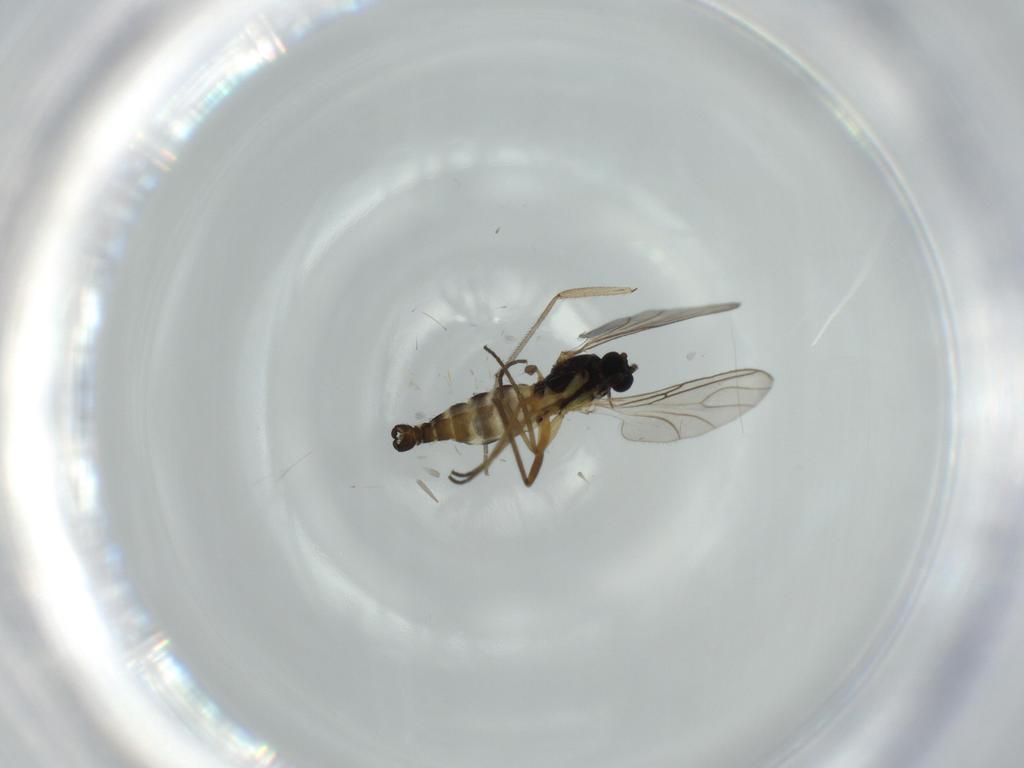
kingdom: Animalia
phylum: Arthropoda
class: Insecta
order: Diptera
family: Sciaridae
